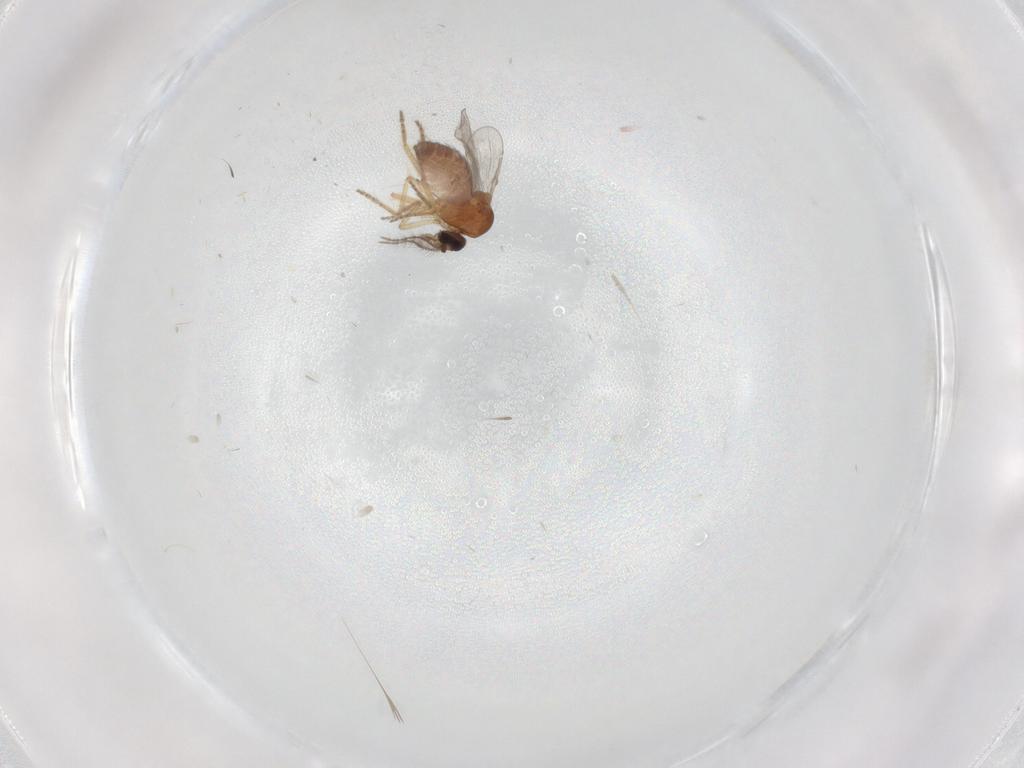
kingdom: Animalia
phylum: Arthropoda
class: Insecta
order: Diptera
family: Ceratopogonidae
